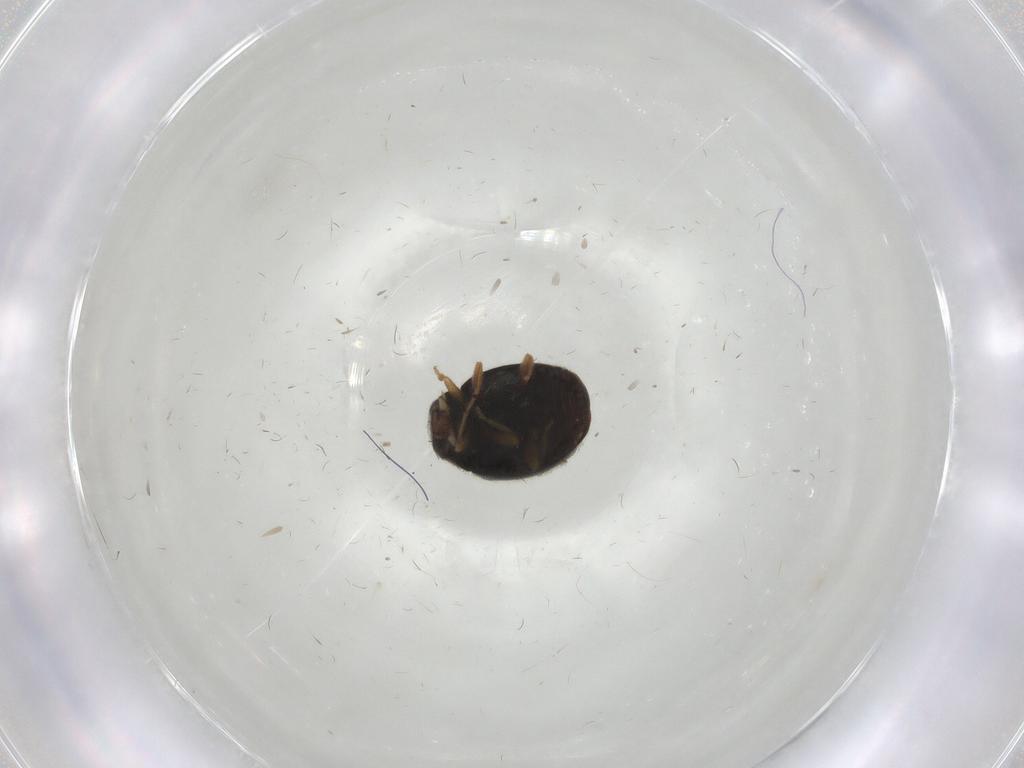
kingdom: Animalia
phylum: Arthropoda
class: Insecta
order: Coleoptera
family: Coccinellidae
